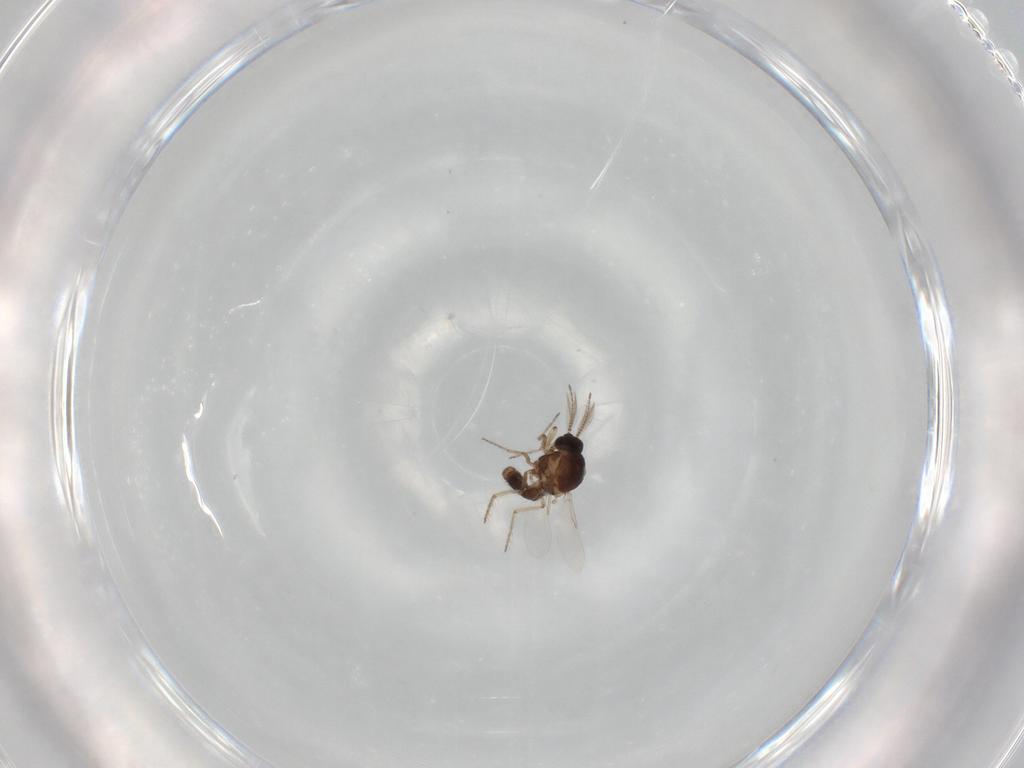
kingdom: Animalia
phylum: Arthropoda
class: Insecta
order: Diptera
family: Ceratopogonidae
